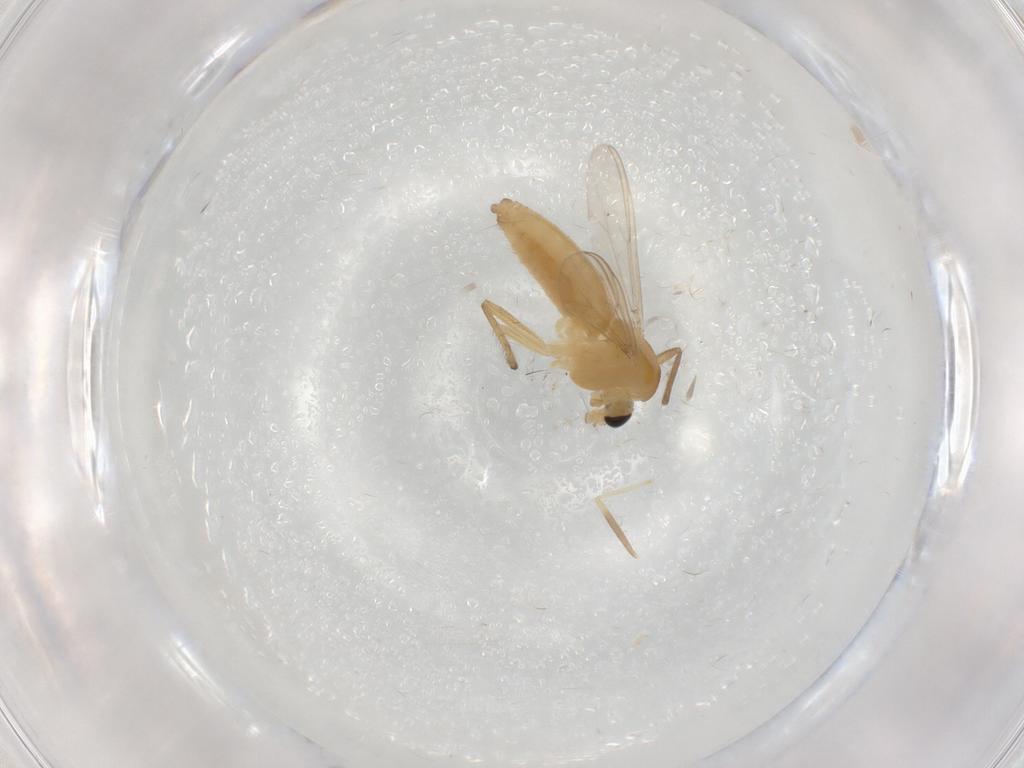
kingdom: Animalia
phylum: Arthropoda
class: Insecta
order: Diptera
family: Chironomidae
